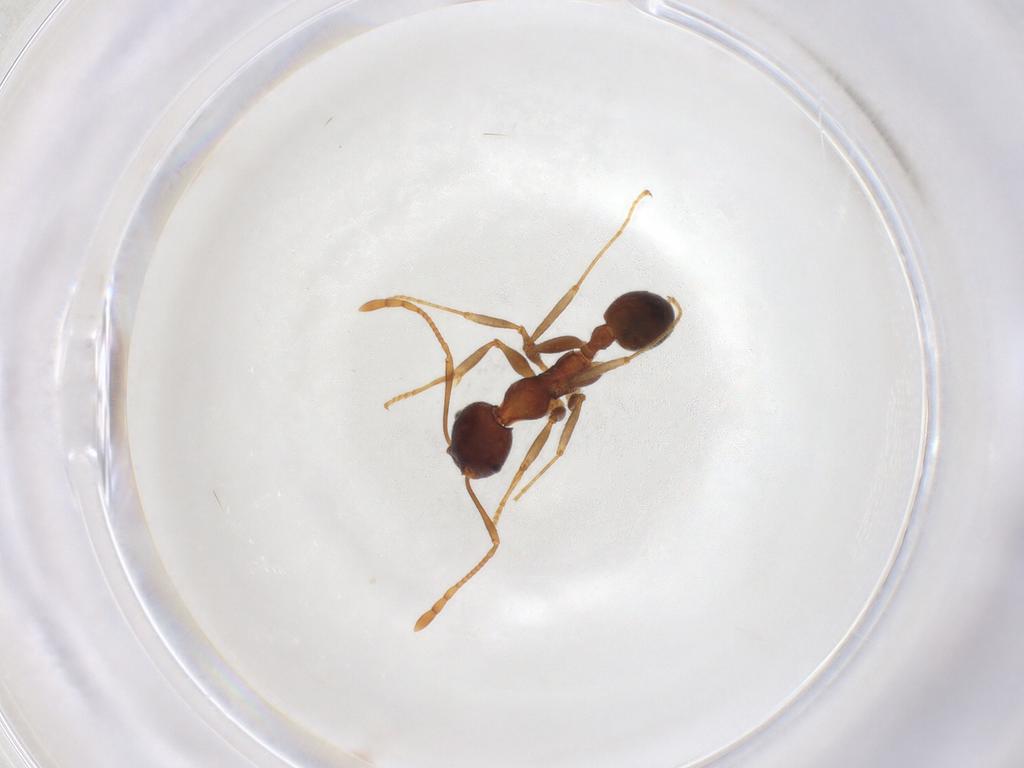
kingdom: Animalia
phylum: Arthropoda
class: Insecta
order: Hymenoptera
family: Formicidae
